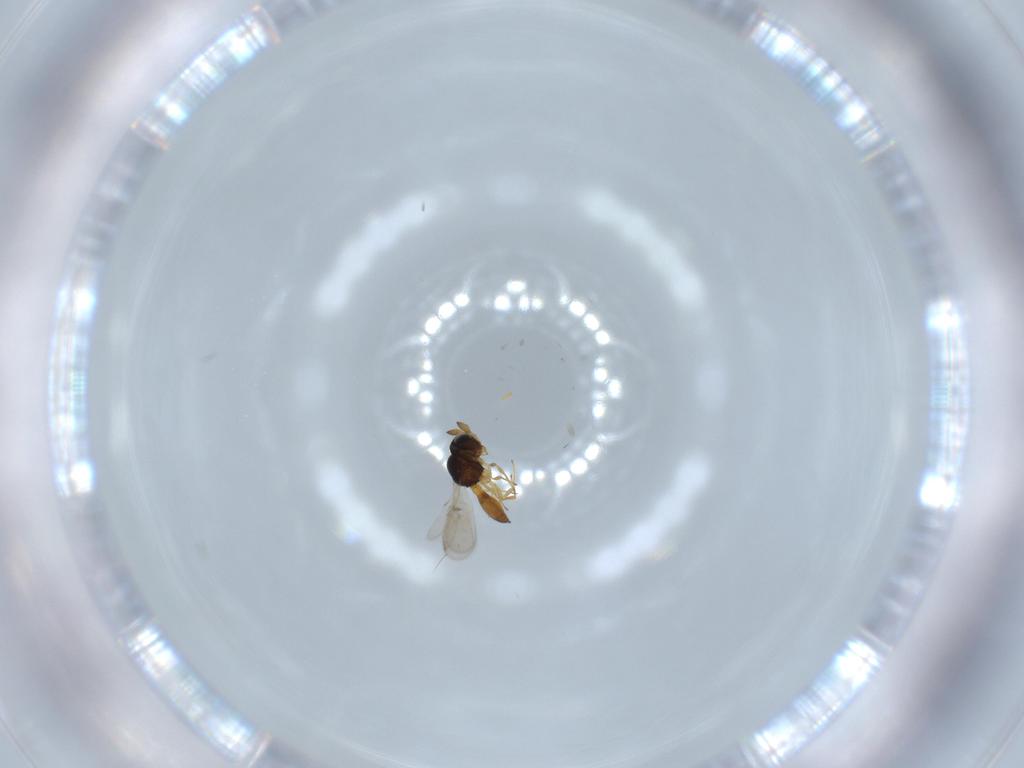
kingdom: Animalia
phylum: Arthropoda
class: Insecta
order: Hymenoptera
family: Scelionidae
